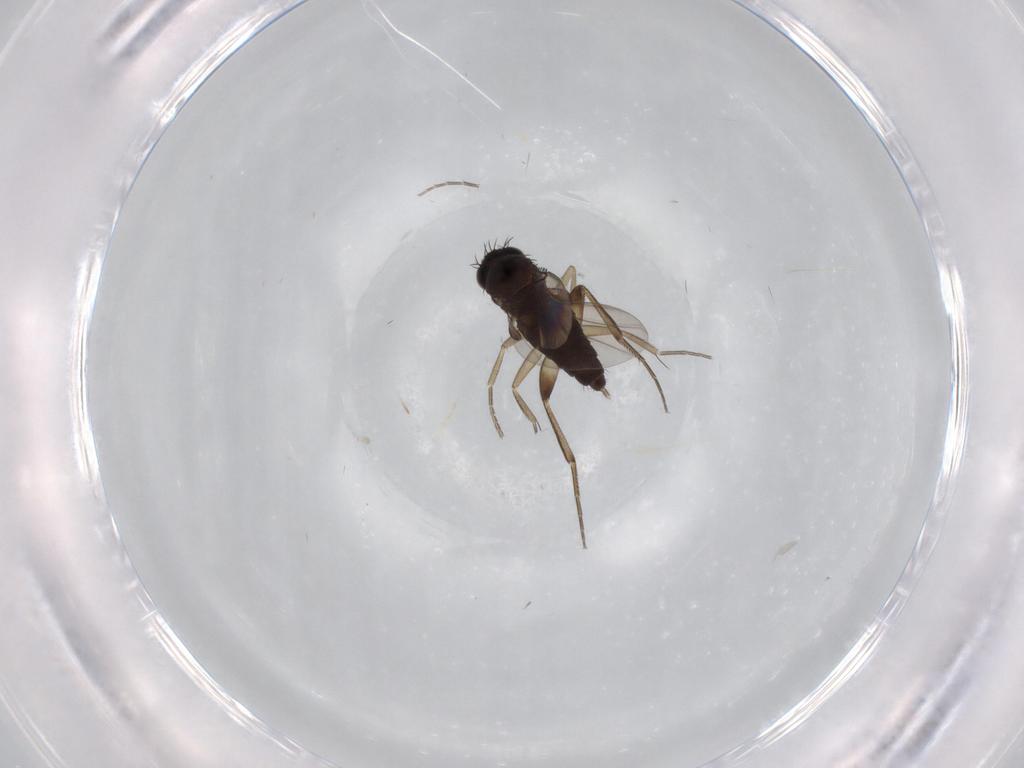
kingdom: Animalia
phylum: Arthropoda
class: Insecta
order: Diptera
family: Phoridae
